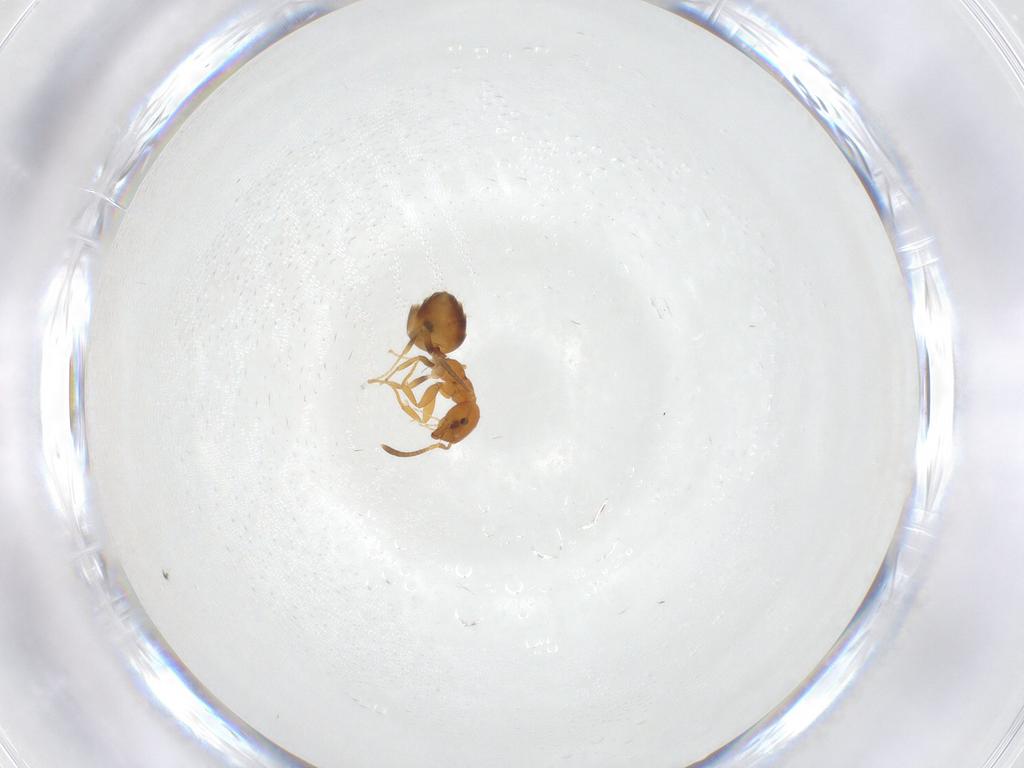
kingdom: Animalia
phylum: Arthropoda
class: Insecta
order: Hymenoptera
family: Formicidae
